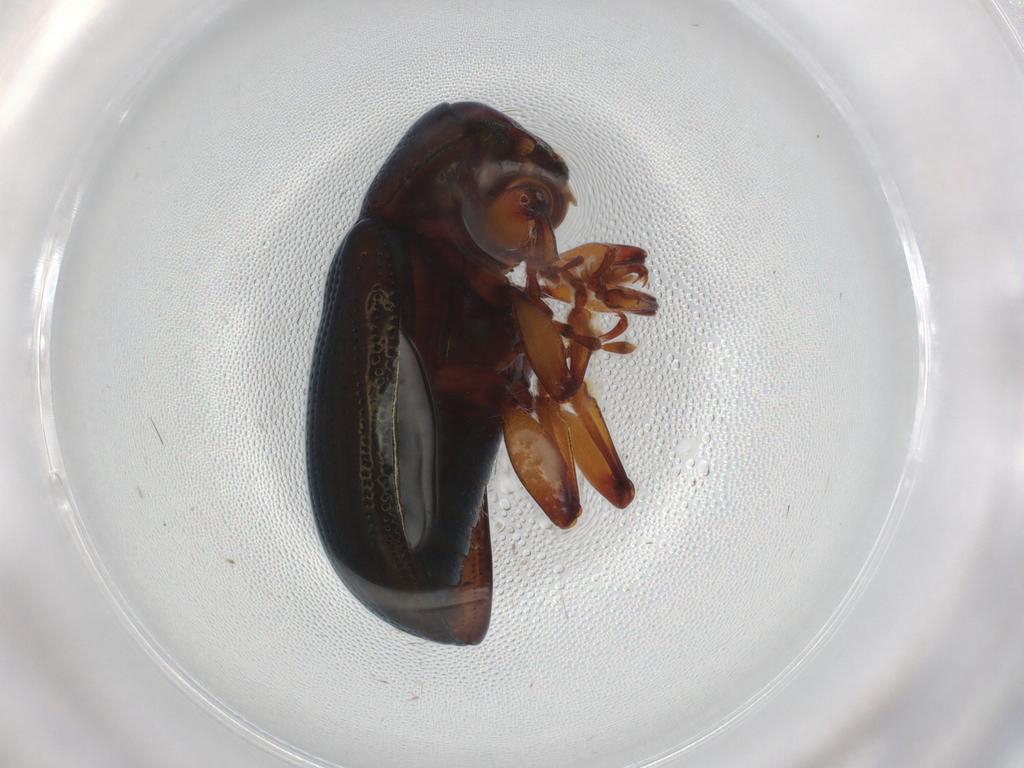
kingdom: Animalia
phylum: Arthropoda
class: Insecta
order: Coleoptera
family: Chrysomelidae
